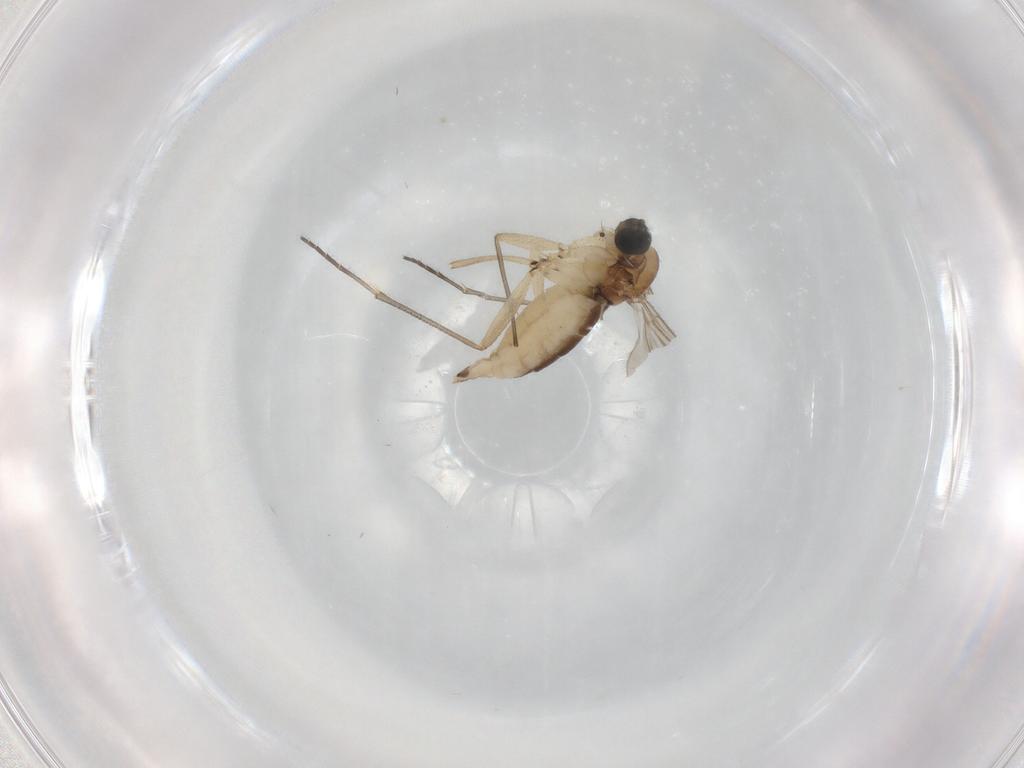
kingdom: Animalia
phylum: Arthropoda
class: Insecta
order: Diptera
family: Sciaridae
